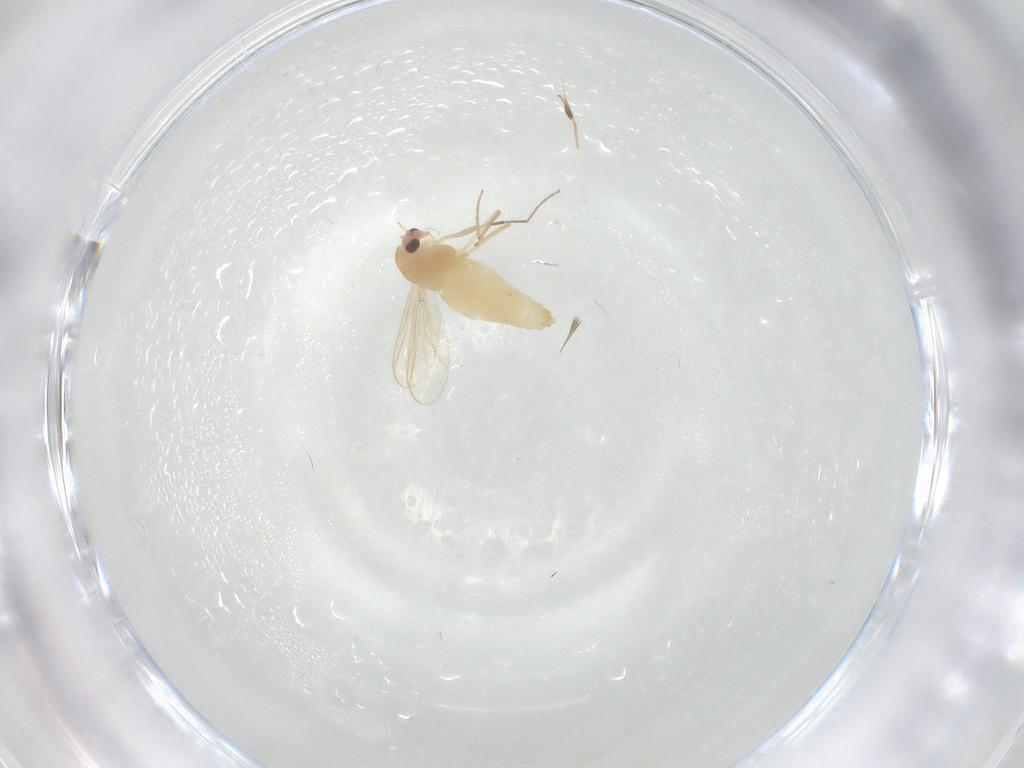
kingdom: Animalia
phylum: Arthropoda
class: Insecta
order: Diptera
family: Chironomidae
